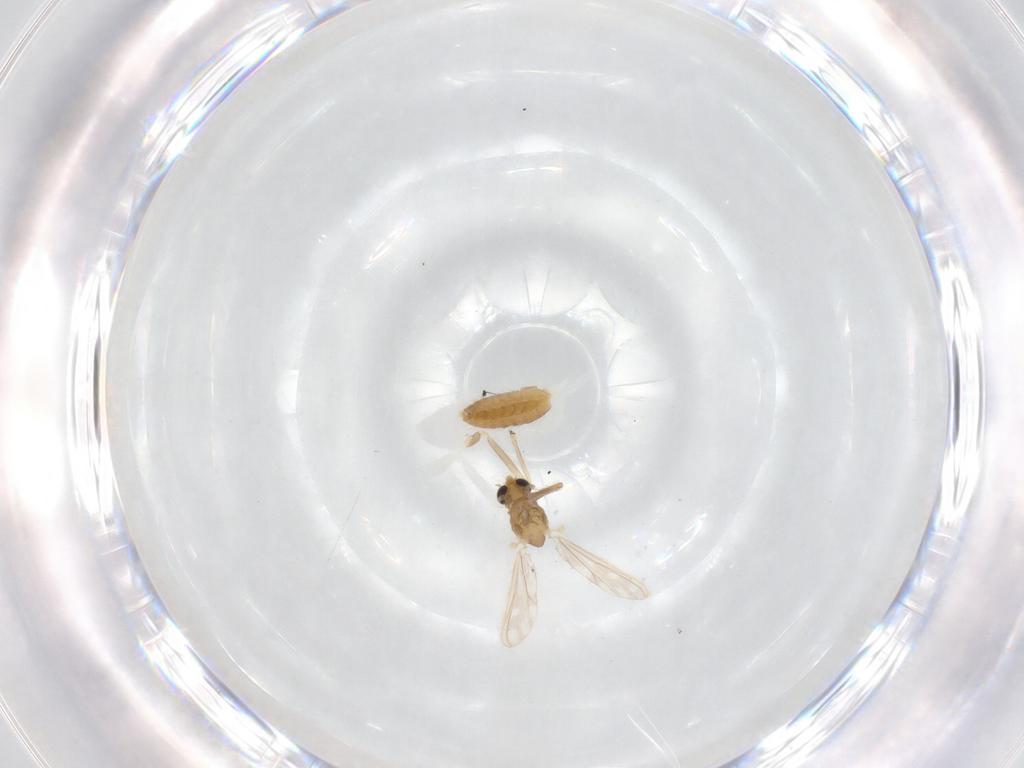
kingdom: Animalia
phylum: Arthropoda
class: Insecta
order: Diptera
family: Chironomidae
